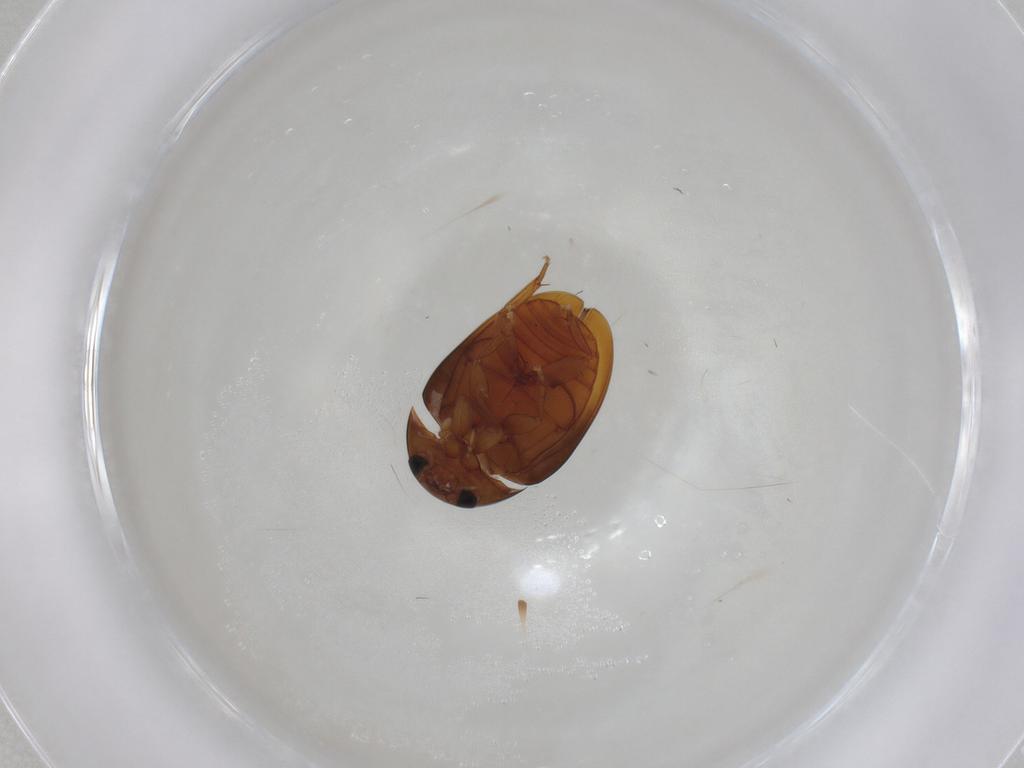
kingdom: Animalia
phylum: Arthropoda
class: Insecta
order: Coleoptera
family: Phalacridae
